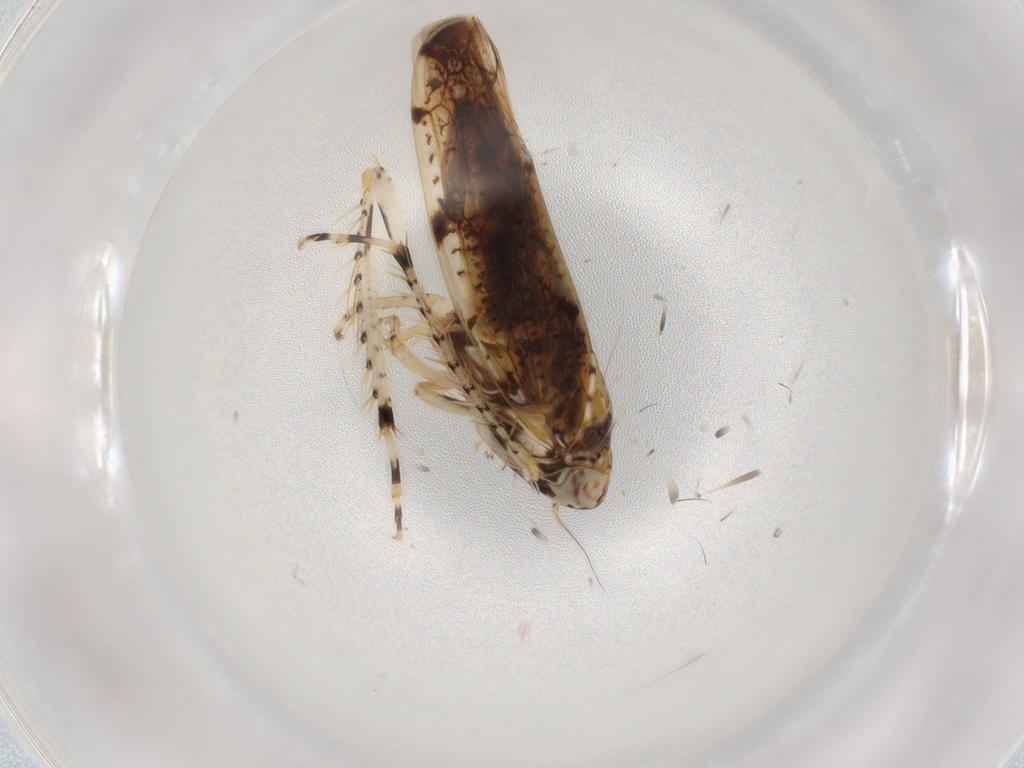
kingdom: Animalia
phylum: Arthropoda
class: Insecta
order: Hemiptera
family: Cicadellidae
